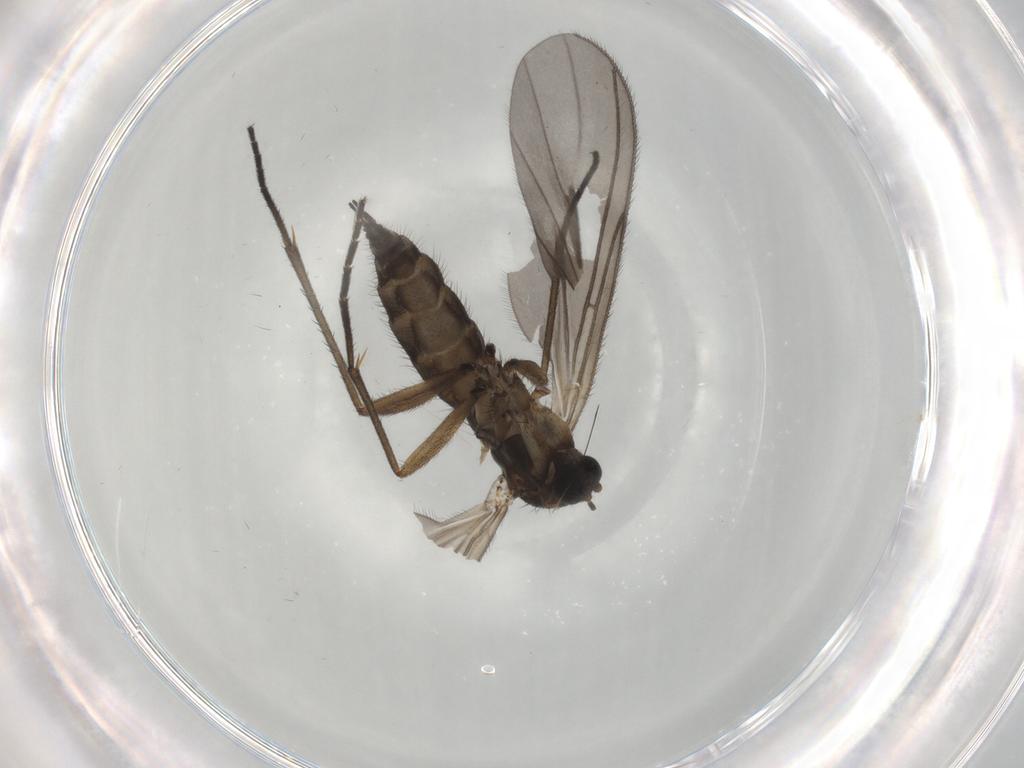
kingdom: Animalia
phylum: Arthropoda
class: Insecta
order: Diptera
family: Sciaridae
